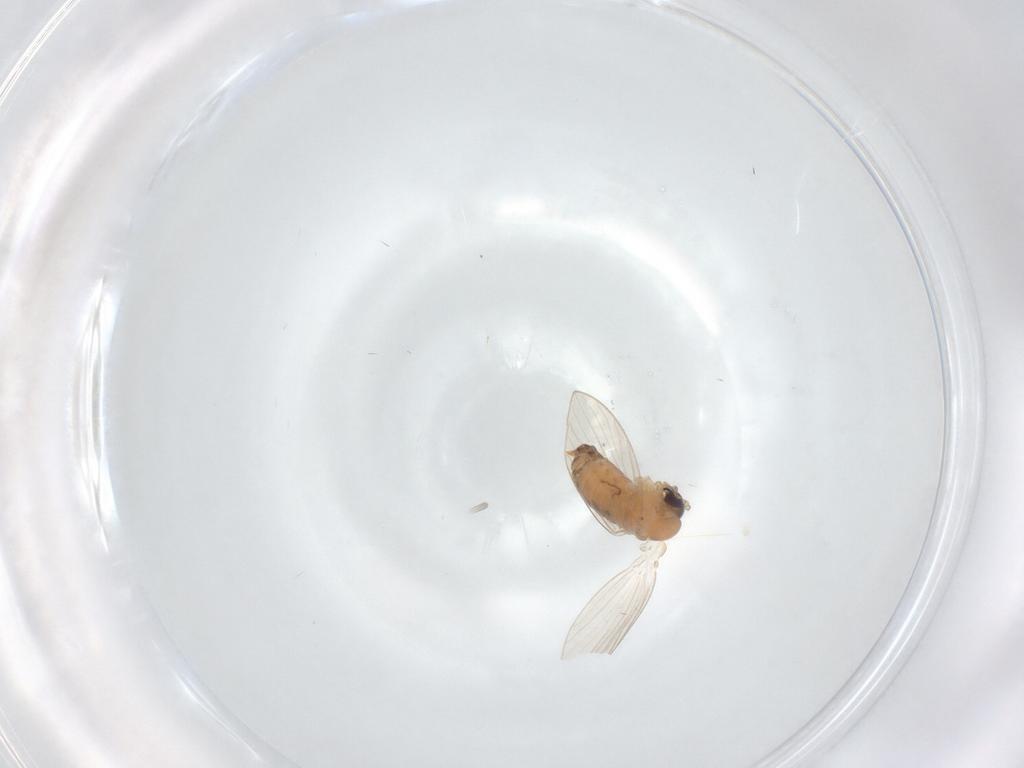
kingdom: Animalia
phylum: Arthropoda
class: Insecta
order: Diptera
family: Psychodidae
